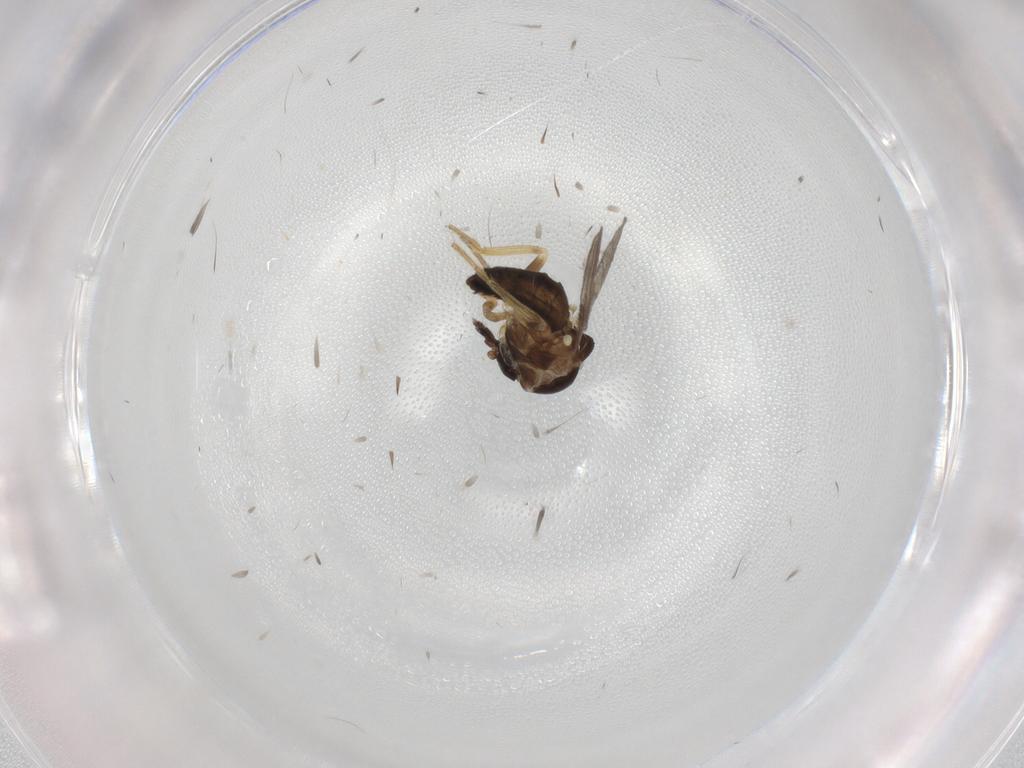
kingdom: Animalia
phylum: Arthropoda
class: Insecta
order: Diptera
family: Ceratopogonidae
